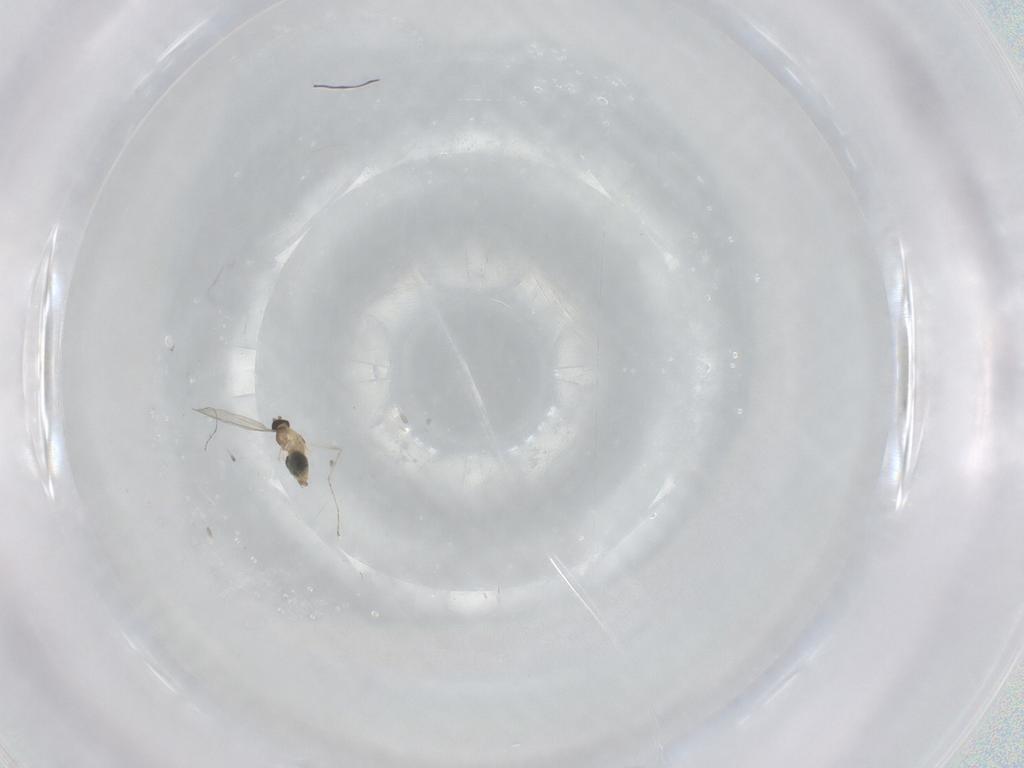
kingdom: Animalia
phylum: Arthropoda
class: Insecta
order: Diptera
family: Cecidomyiidae
